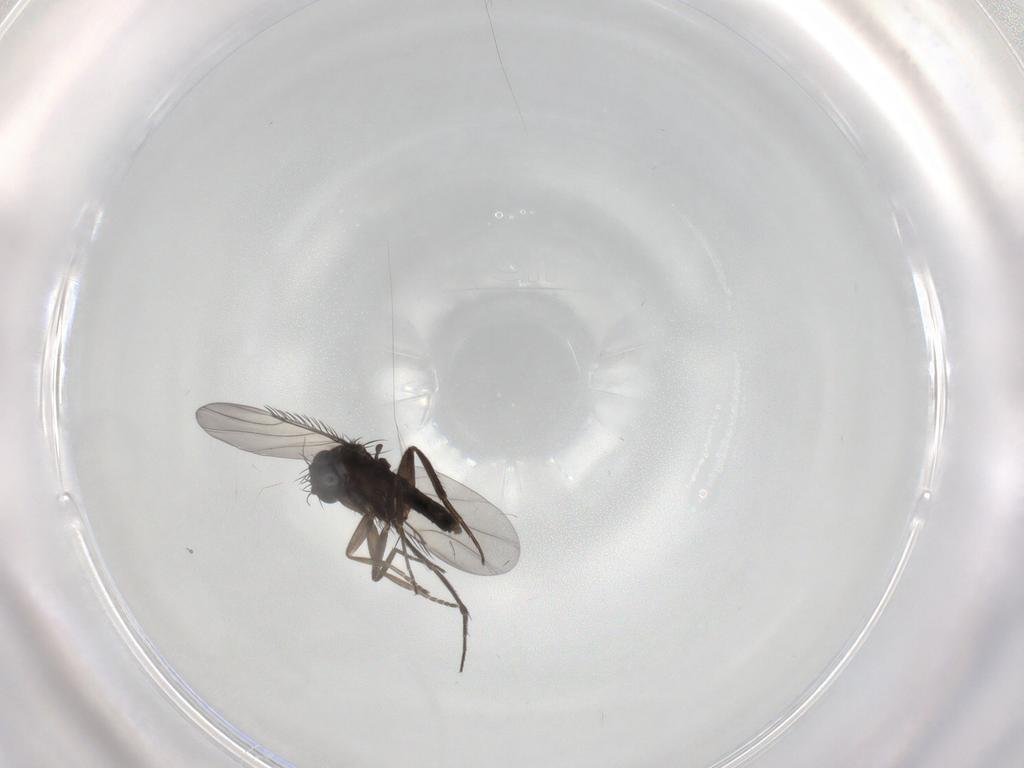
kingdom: Animalia
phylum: Arthropoda
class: Insecta
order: Diptera
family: Phoridae
